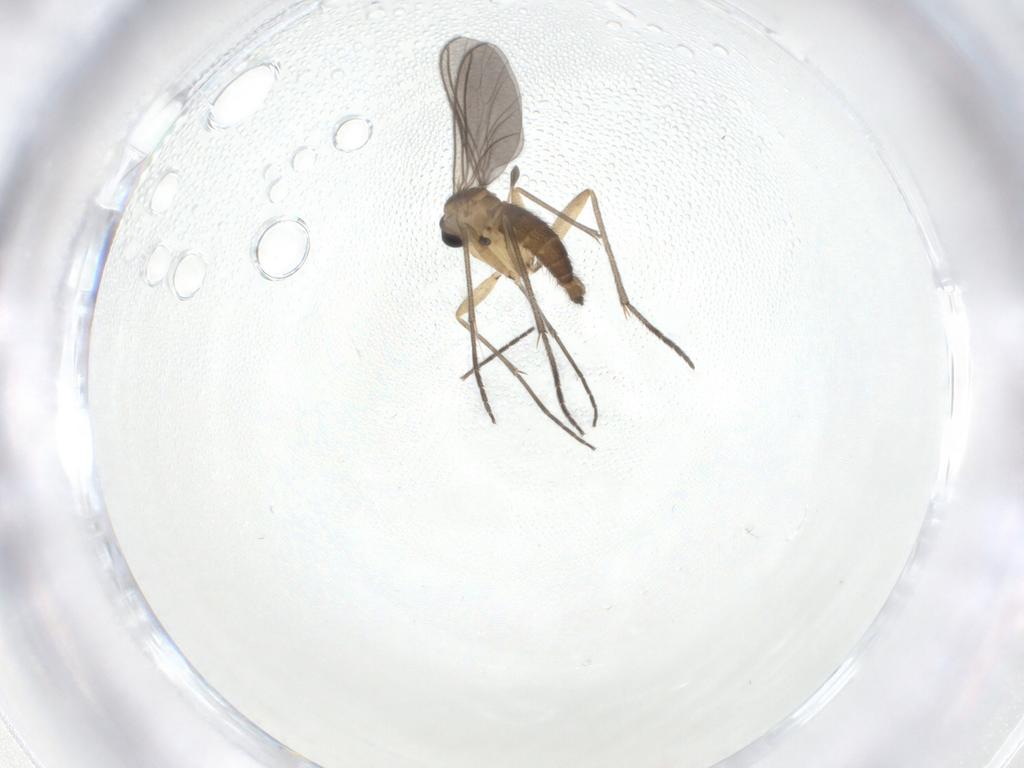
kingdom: Animalia
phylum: Arthropoda
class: Insecta
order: Diptera
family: Sciaridae
